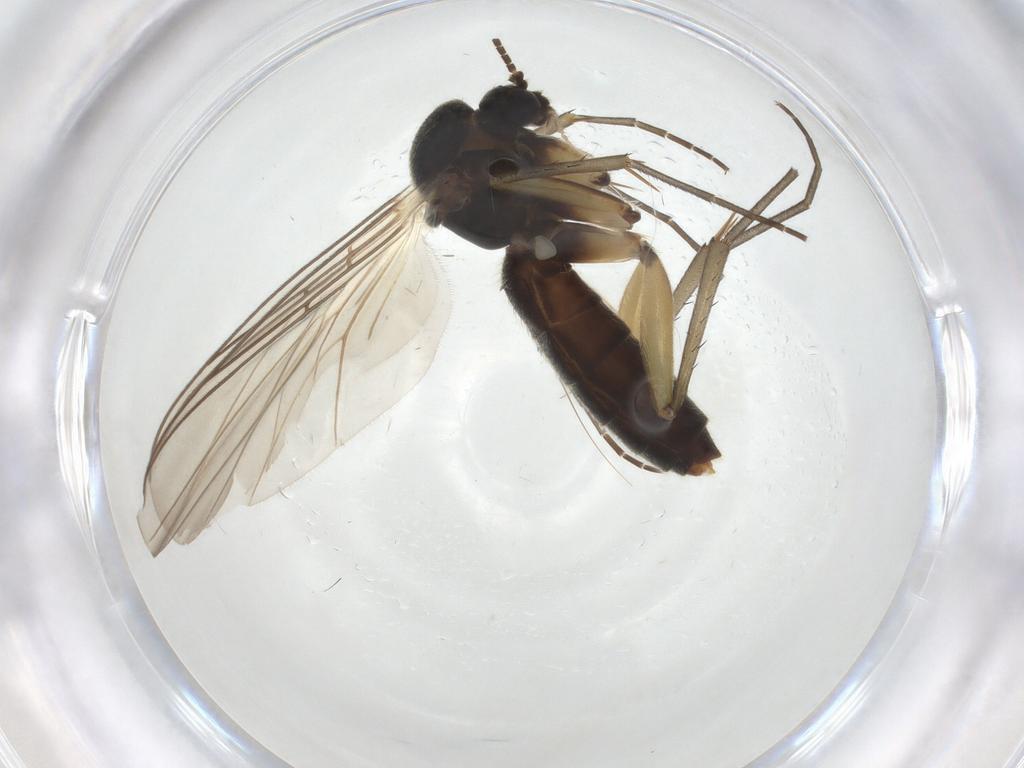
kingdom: Animalia
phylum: Arthropoda
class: Insecta
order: Diptera
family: Mycetophilidae
